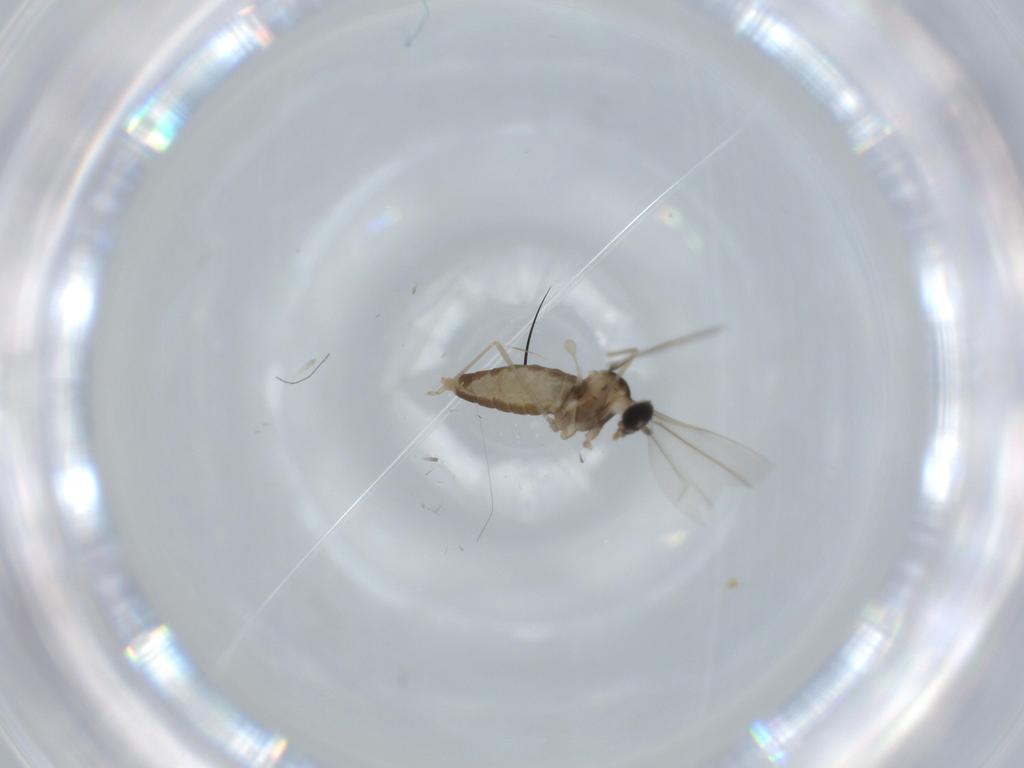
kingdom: Animalia
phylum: Arthropoda
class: Insecta
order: Diptera
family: Cecidomyiidae
